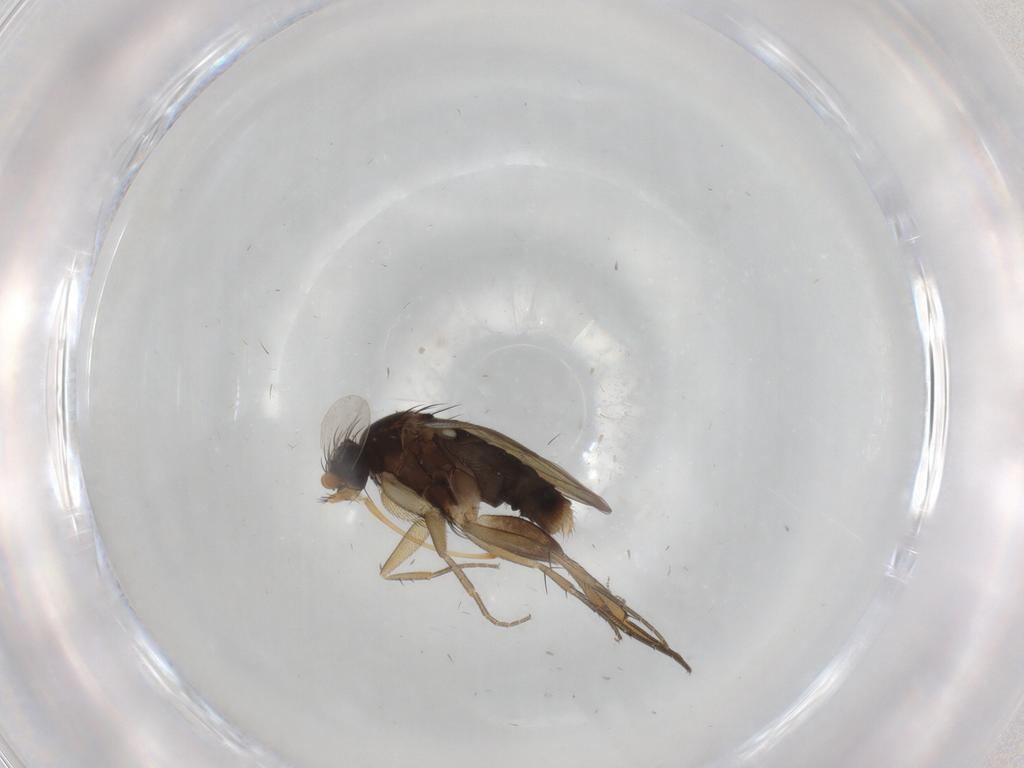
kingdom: Animalia
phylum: Arthropoda
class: Insecta
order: Diptera
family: Phoridae
